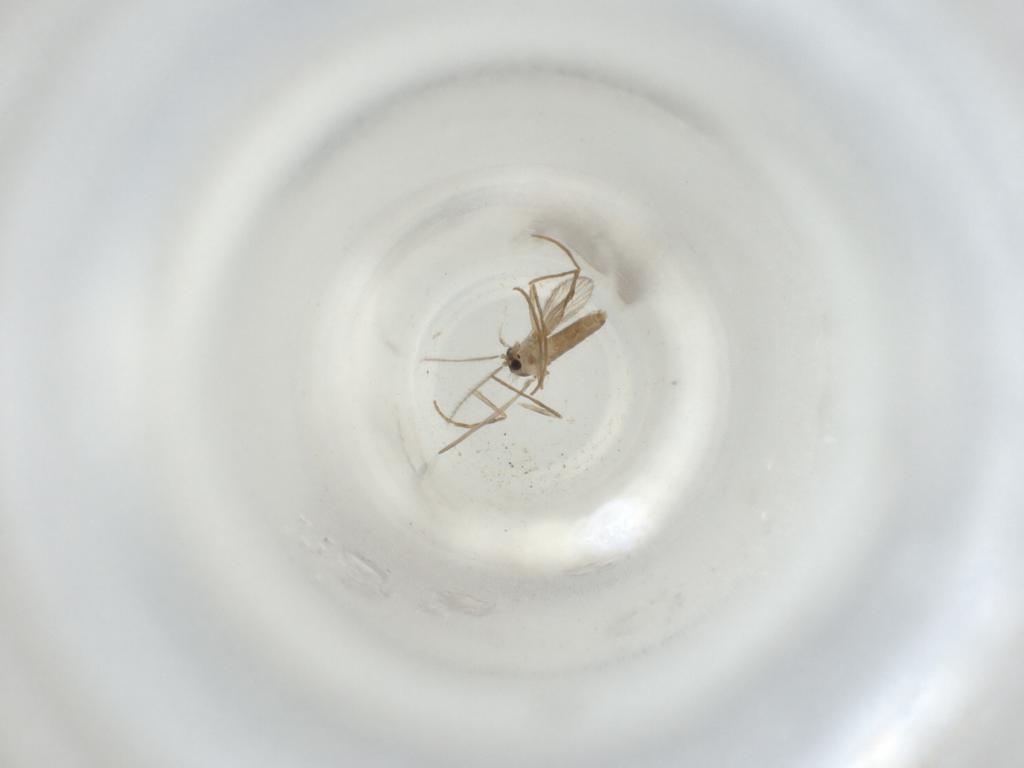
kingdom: Animalia
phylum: Arthropoda
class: Insecta
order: Diptera
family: Psychodidae
